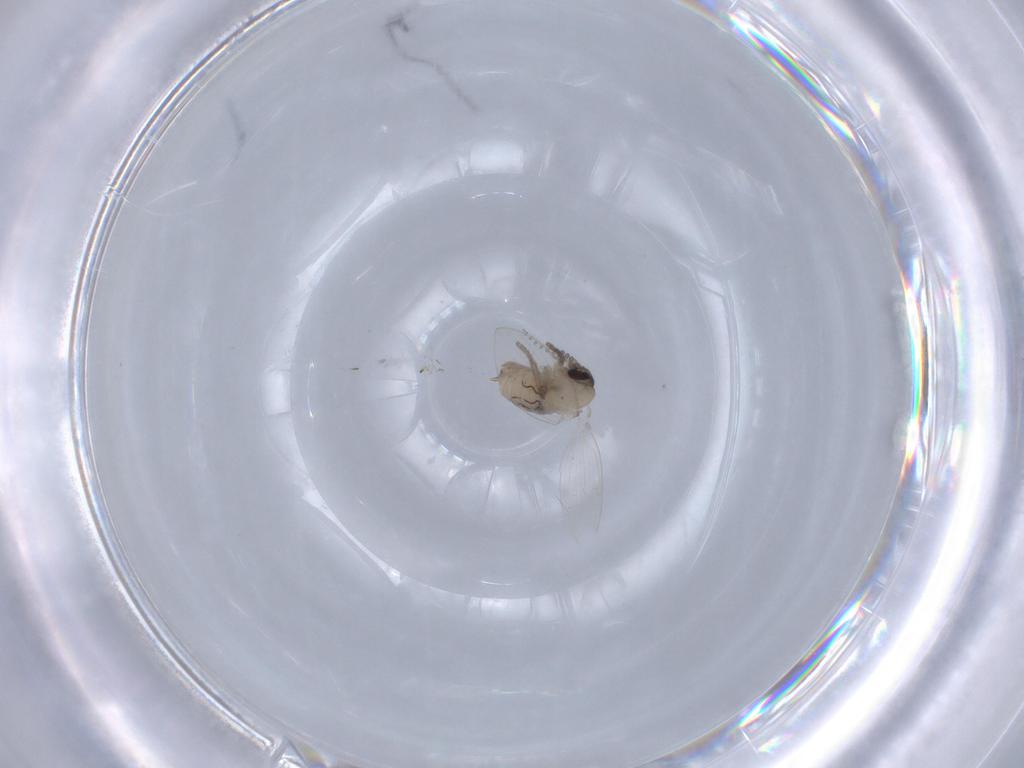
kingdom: Animalia
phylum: Arthropoda
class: Insecta
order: Diptera
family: Psychodidae
